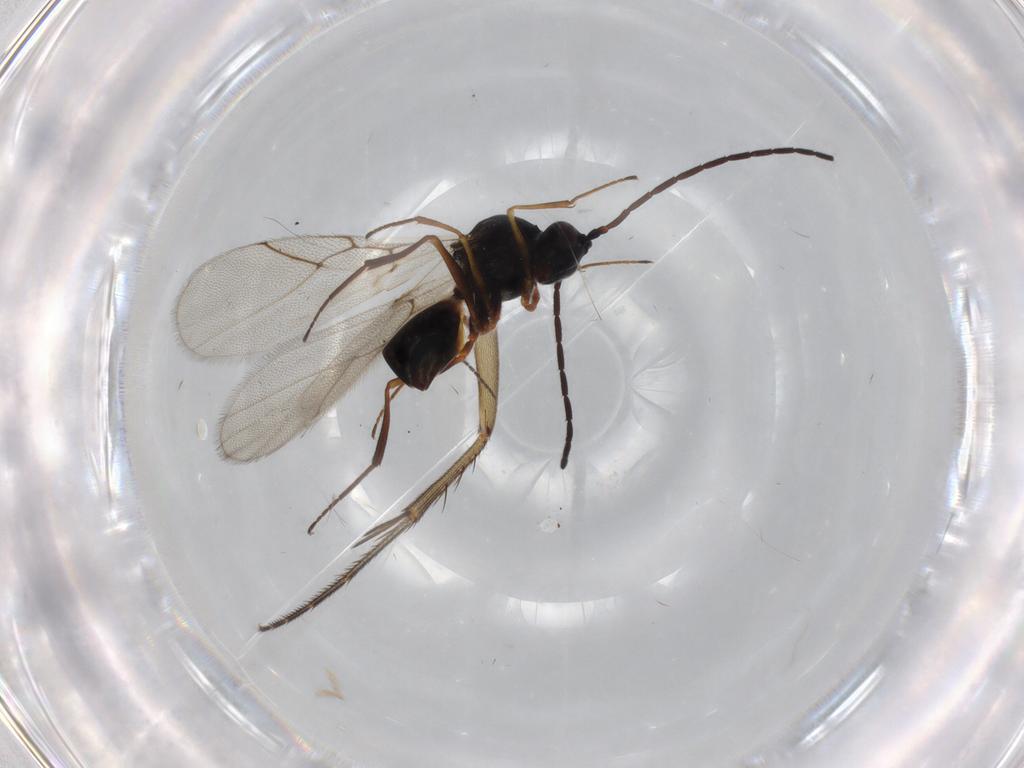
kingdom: Animalia
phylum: Arthropoda
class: Insecta
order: Hymenoptera
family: Figitidae
